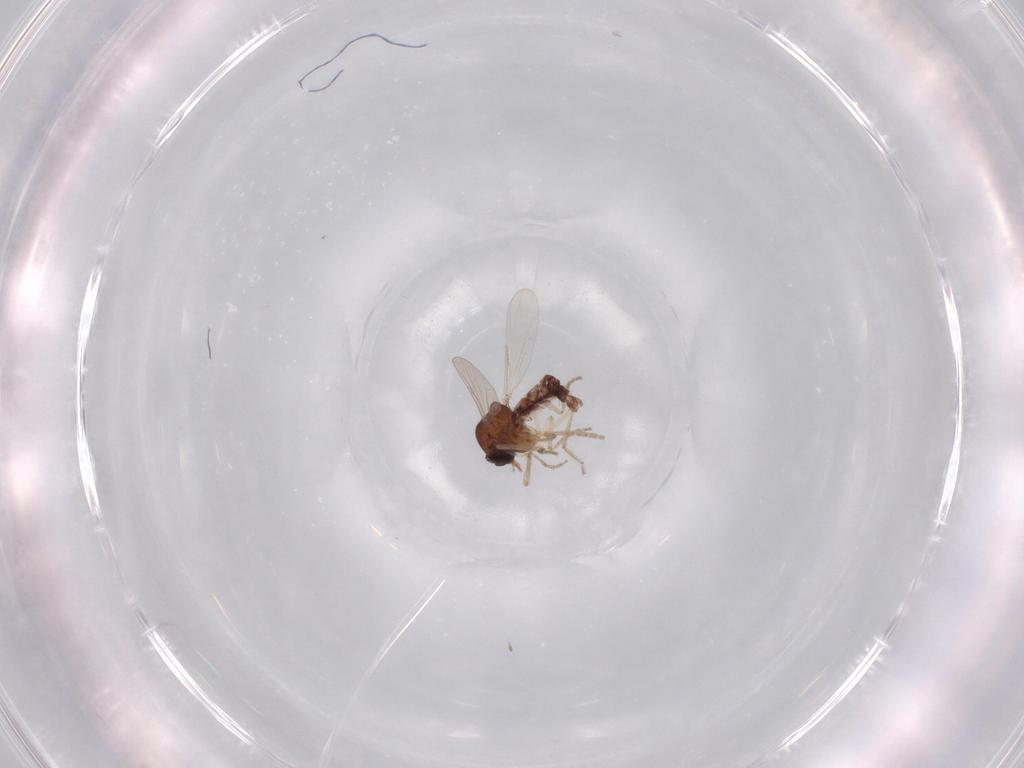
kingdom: Animalia
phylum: Arthropoda
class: Insecta
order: Diptera
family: Ceratopogonidae
